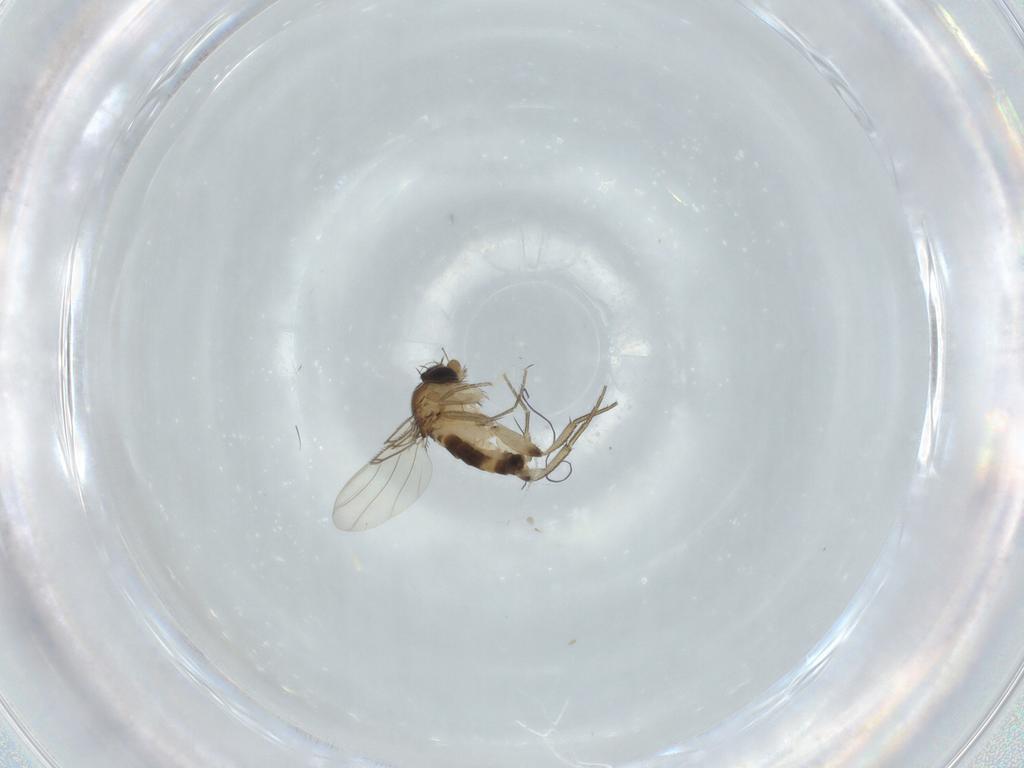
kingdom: Animalia
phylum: Arthropoda
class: Insecta
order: Diptera
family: Phoridae
